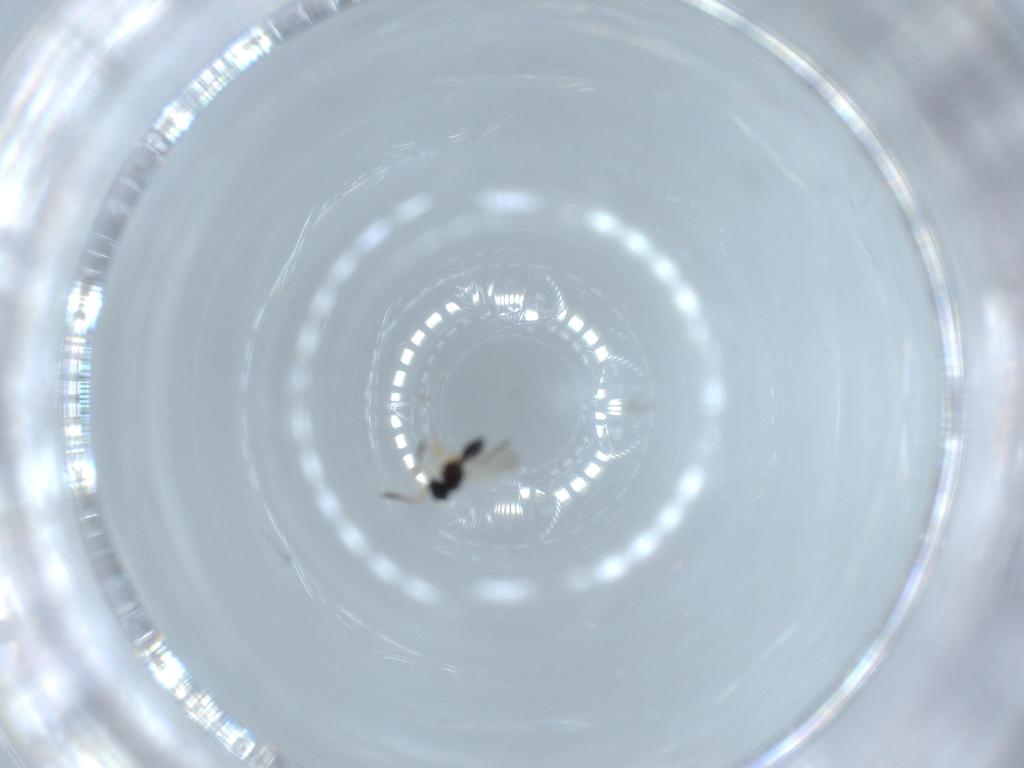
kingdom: Animalia
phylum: Arthropoda
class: Insecta
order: Hymenoptera
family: Scelionidae
